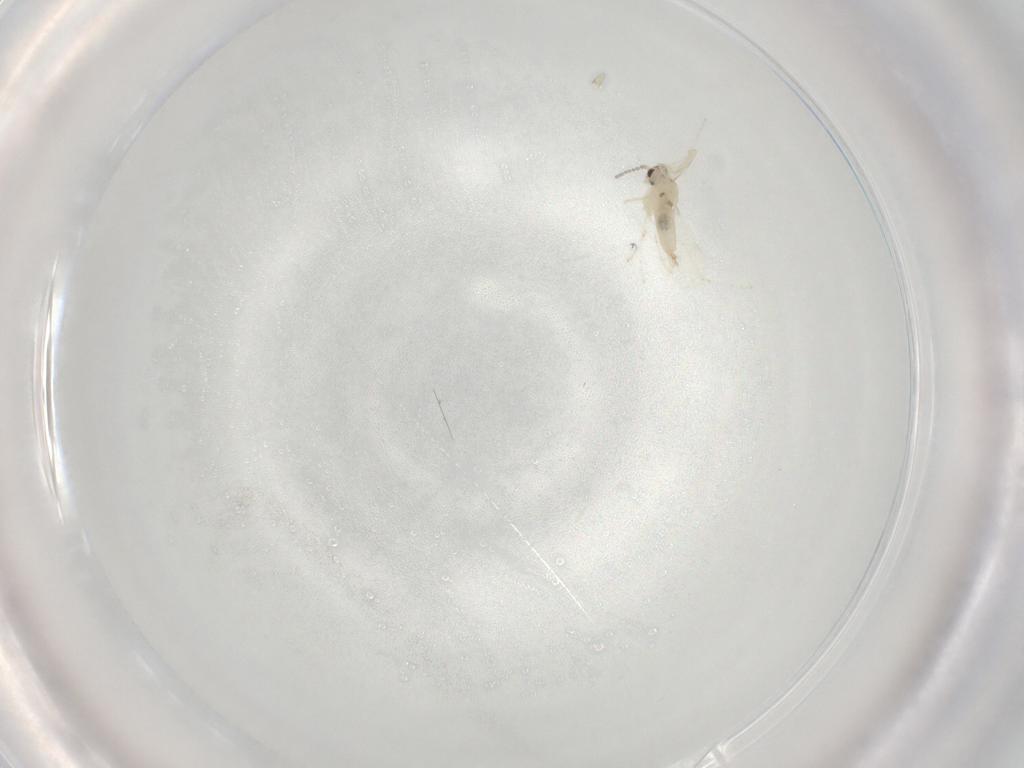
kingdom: Animalia
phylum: Arthropoda
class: Insecta
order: Diptera
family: Cecidomyiidae
